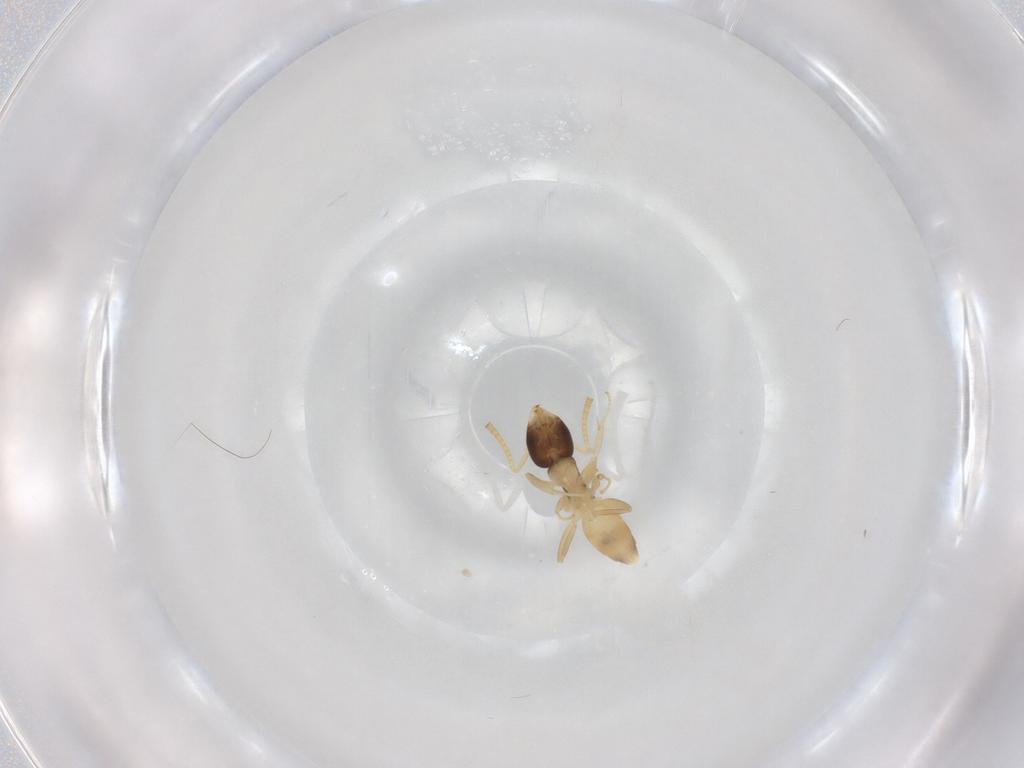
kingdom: Animalia
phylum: Arthropoda
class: Insecta
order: Hymenoptera
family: Formicidae
